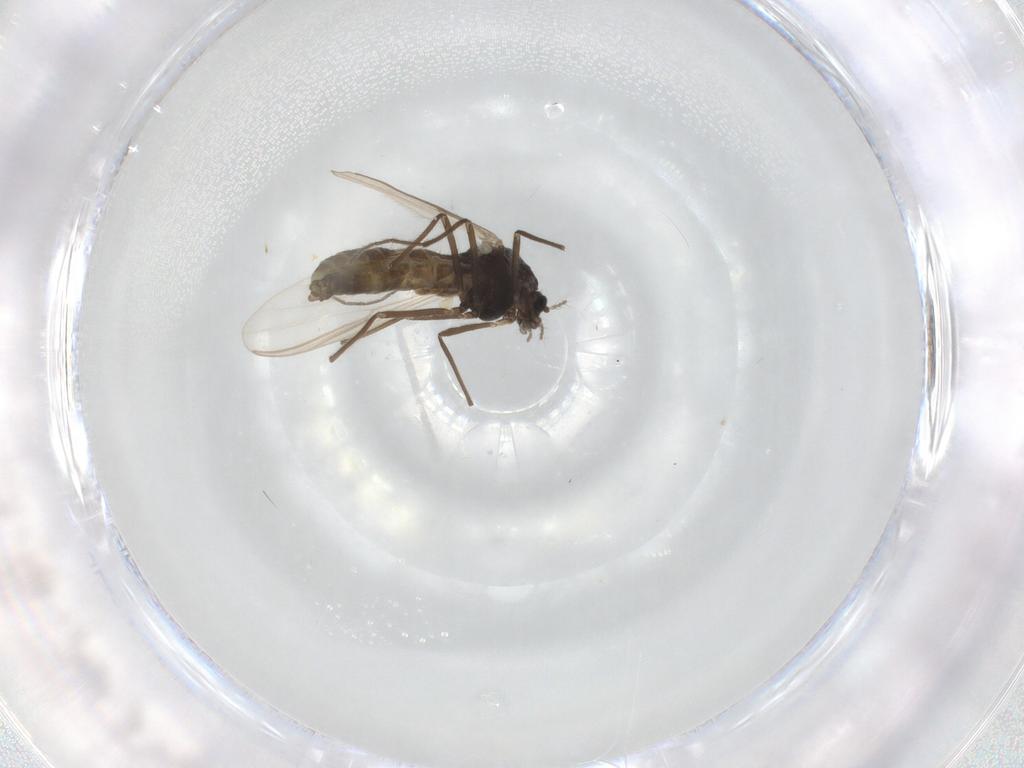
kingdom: Animalia
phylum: Arthropoda
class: Insecta
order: Diptera
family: Chironomidae
